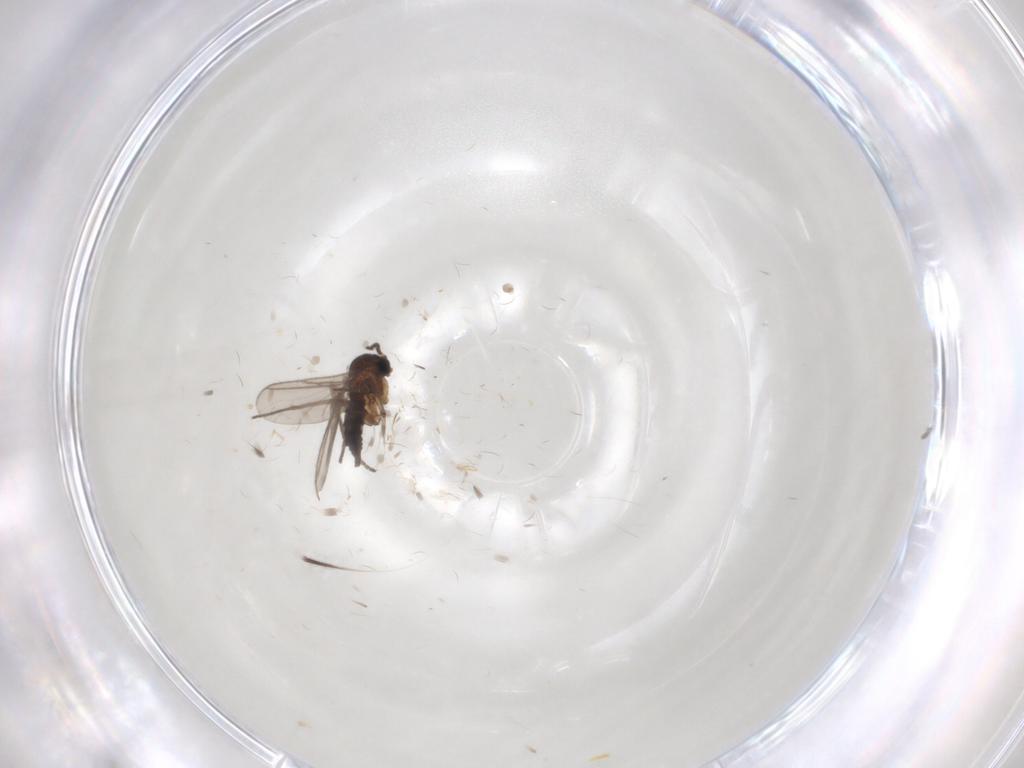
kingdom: Animalia
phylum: Arthropoda
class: Insecta
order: Diptera
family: Psychodidae
